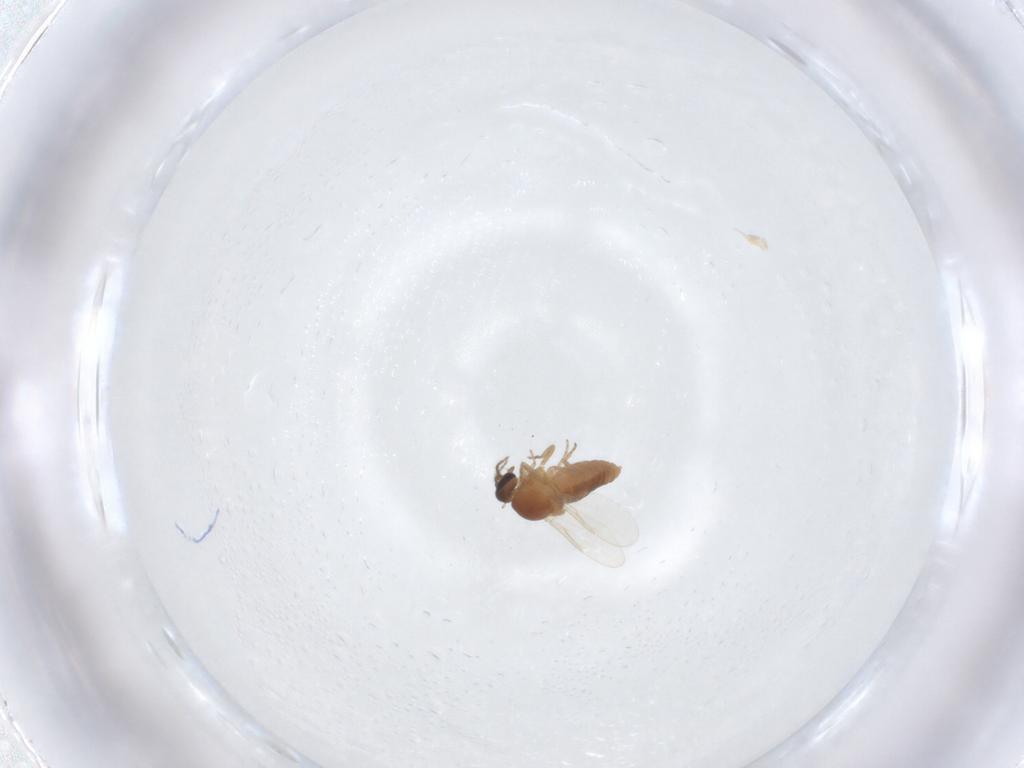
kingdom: Animalia
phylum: Arthropoda
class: Insecta
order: Diptera
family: Ceratopogonidae
